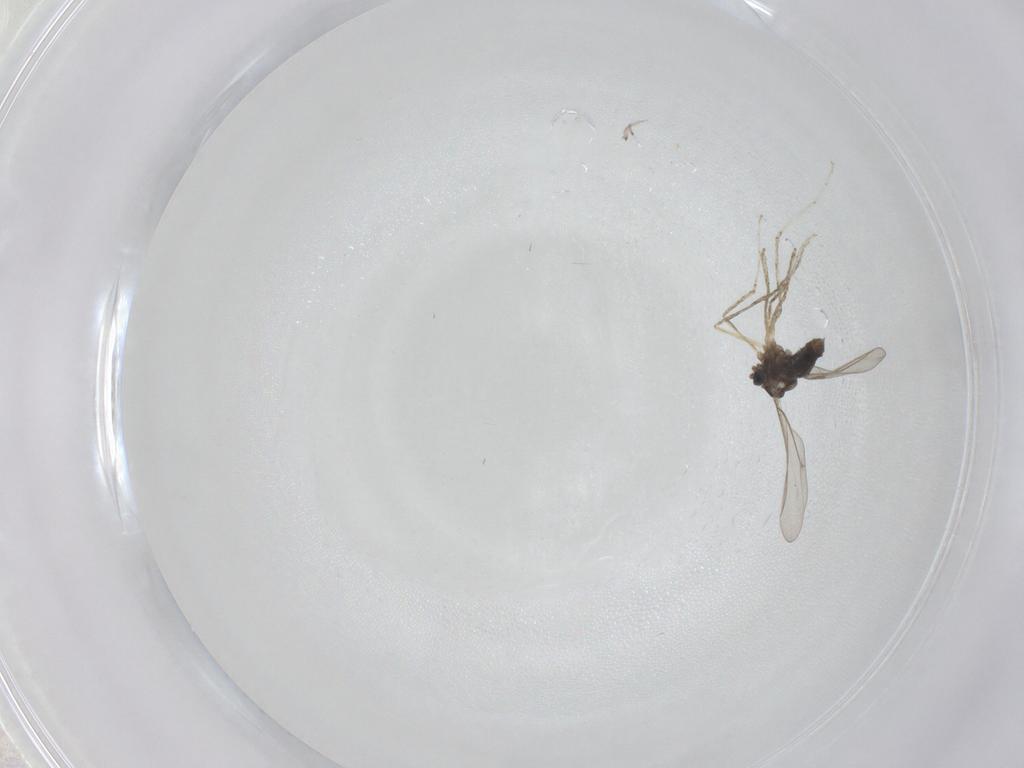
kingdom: Animalia
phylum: Arthropoda
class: Insecta
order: Diptera
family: Cecidomyiidae
